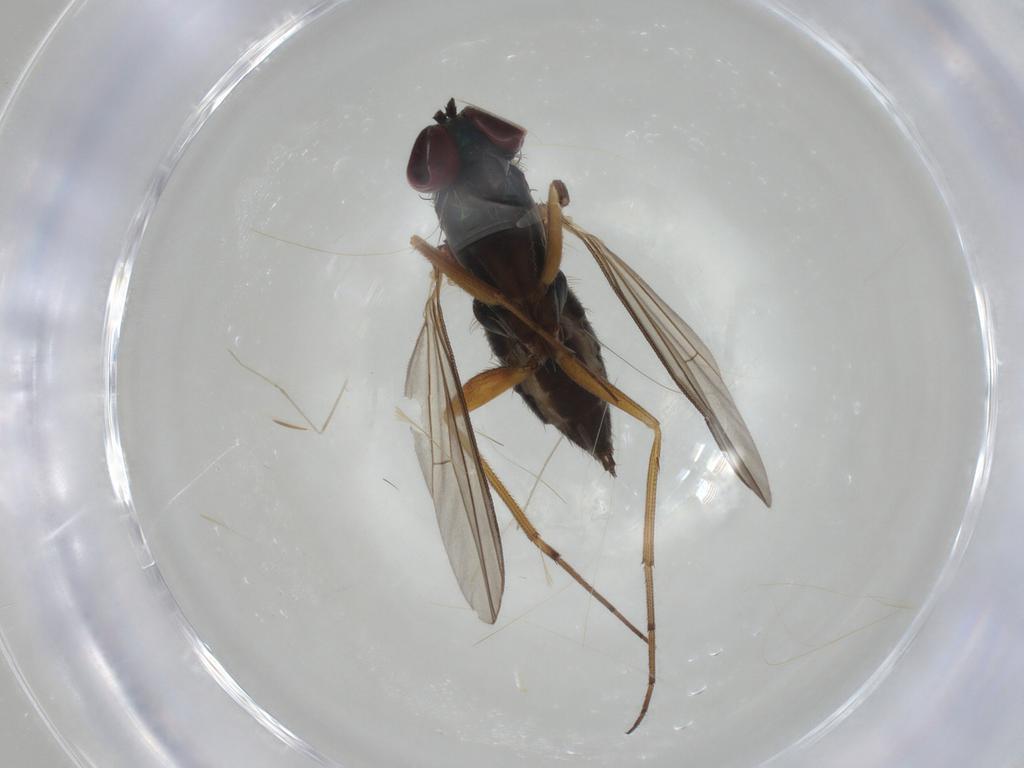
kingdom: Animalia
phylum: Arthropoda
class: Insecta
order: Diptera
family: Dolichopodidae
